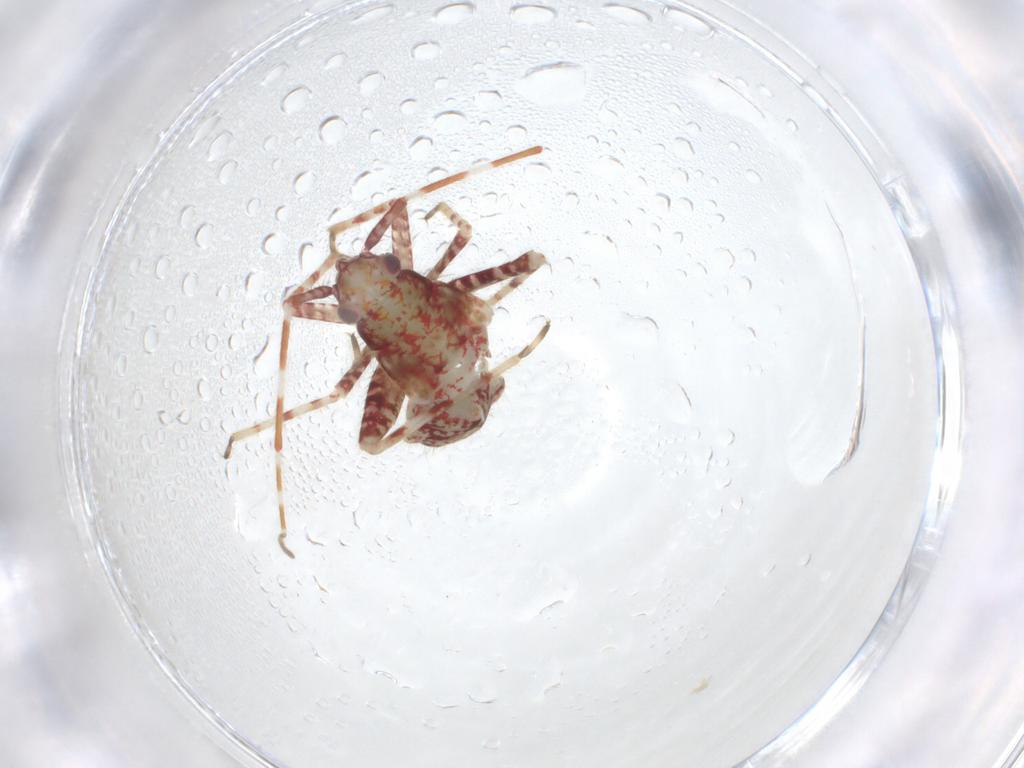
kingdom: Animalia
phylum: Arthropoda
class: Insecta
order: Hemiptera
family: Miridae
